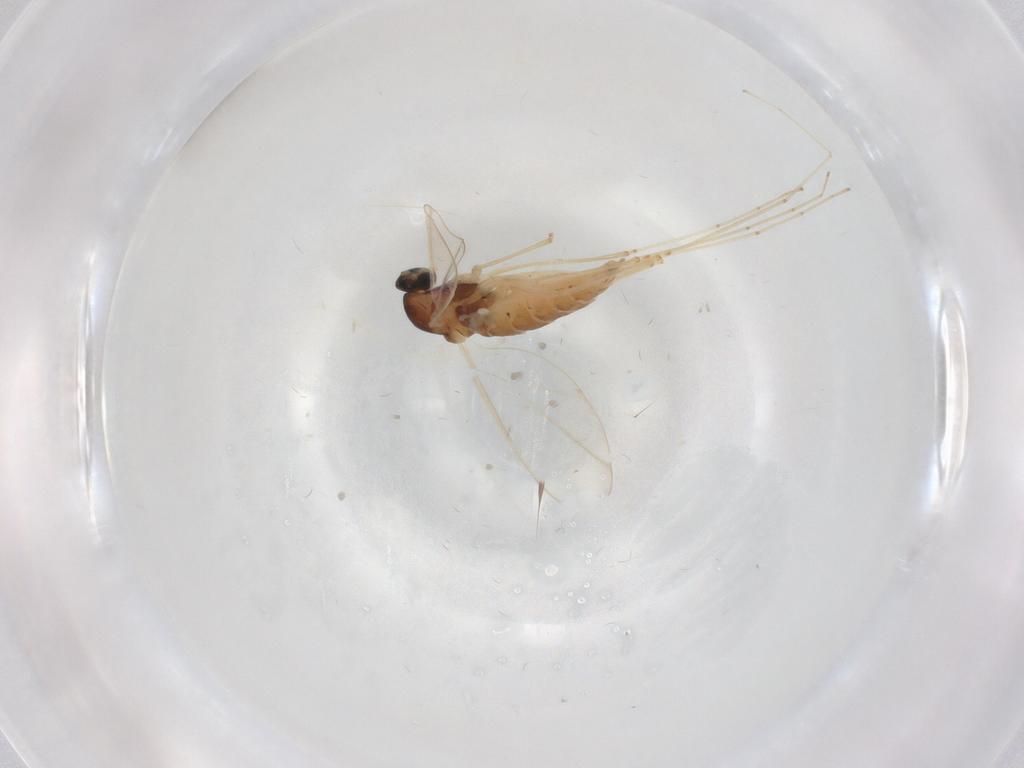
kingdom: Animalia
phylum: Arthropoda
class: Insecta
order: Diptera
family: Cecidomyiidae
